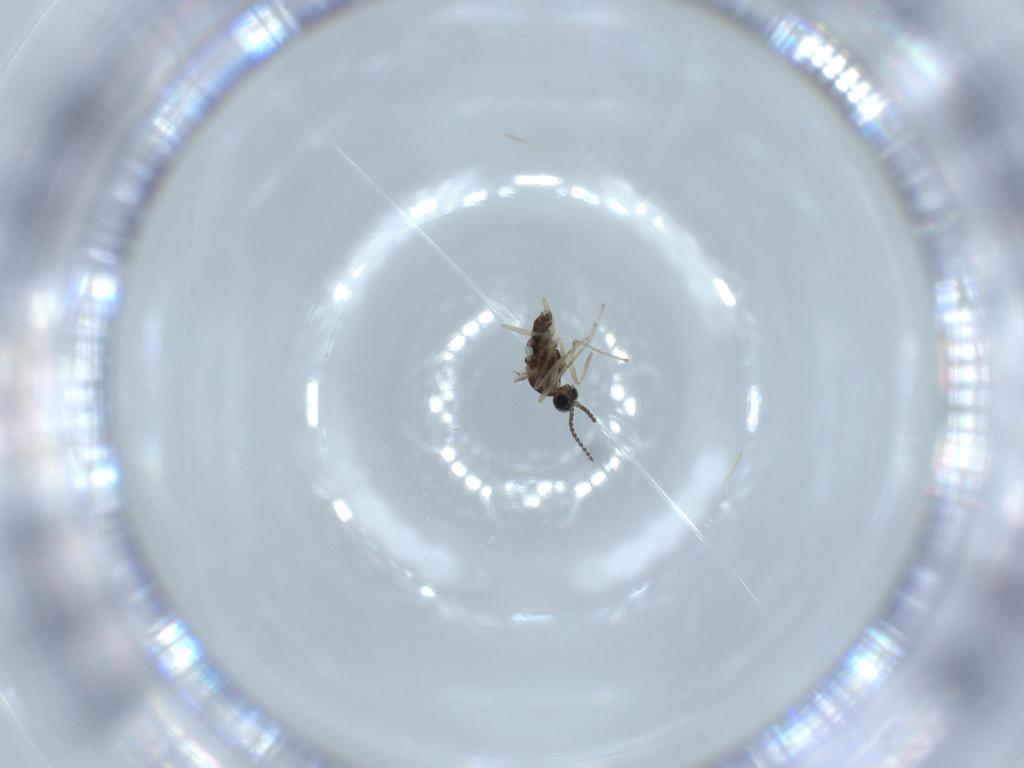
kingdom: Animalia
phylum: Arthropoda
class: Insecta
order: Diptera
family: Cecidomyiidae
